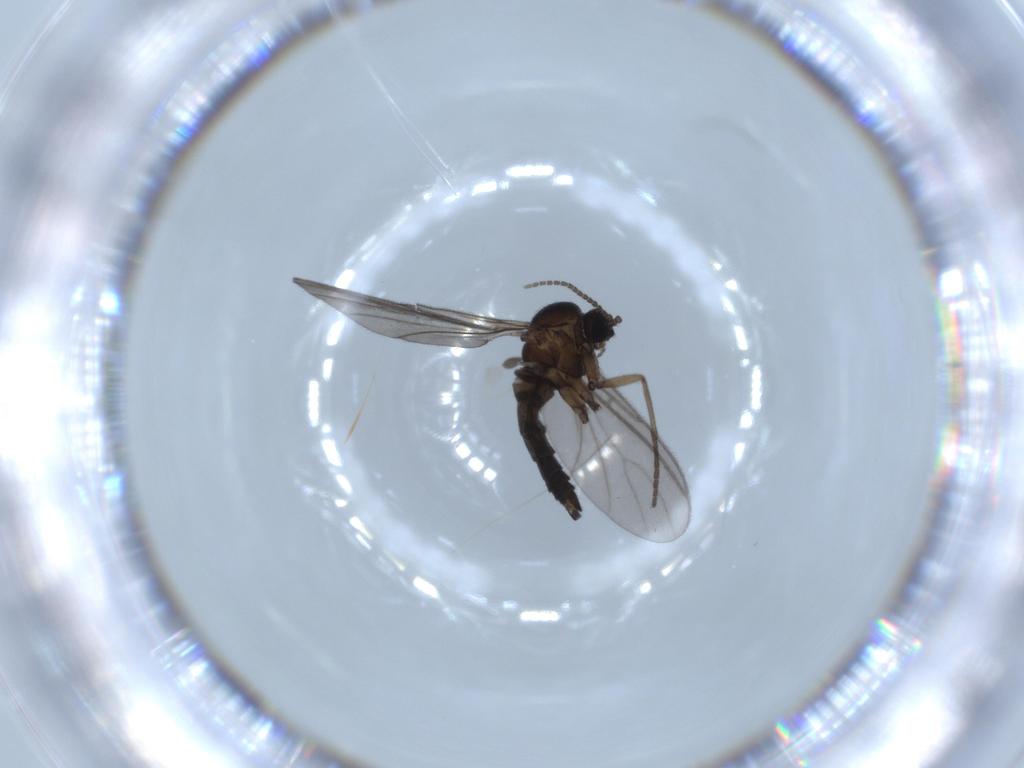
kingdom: Animalia
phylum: Arthropoda
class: Insecta
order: Diptera
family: Sciaridae
